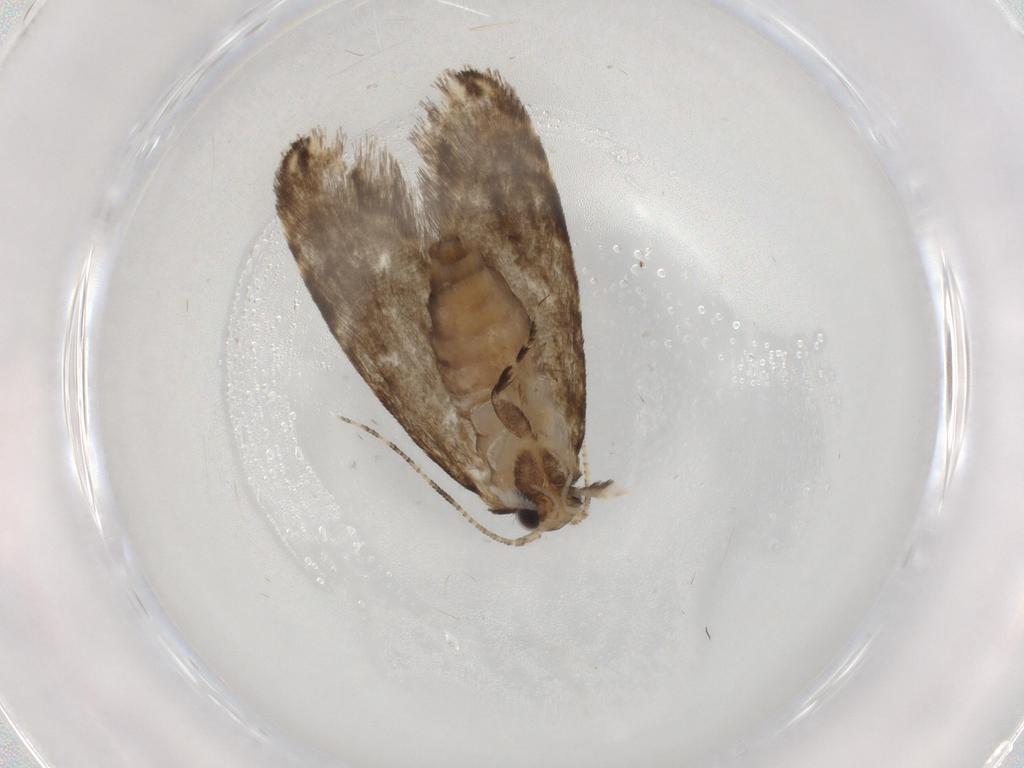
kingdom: Animalia
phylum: Arthropoda
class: Insecta
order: Lepidoptera
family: Tineidae
